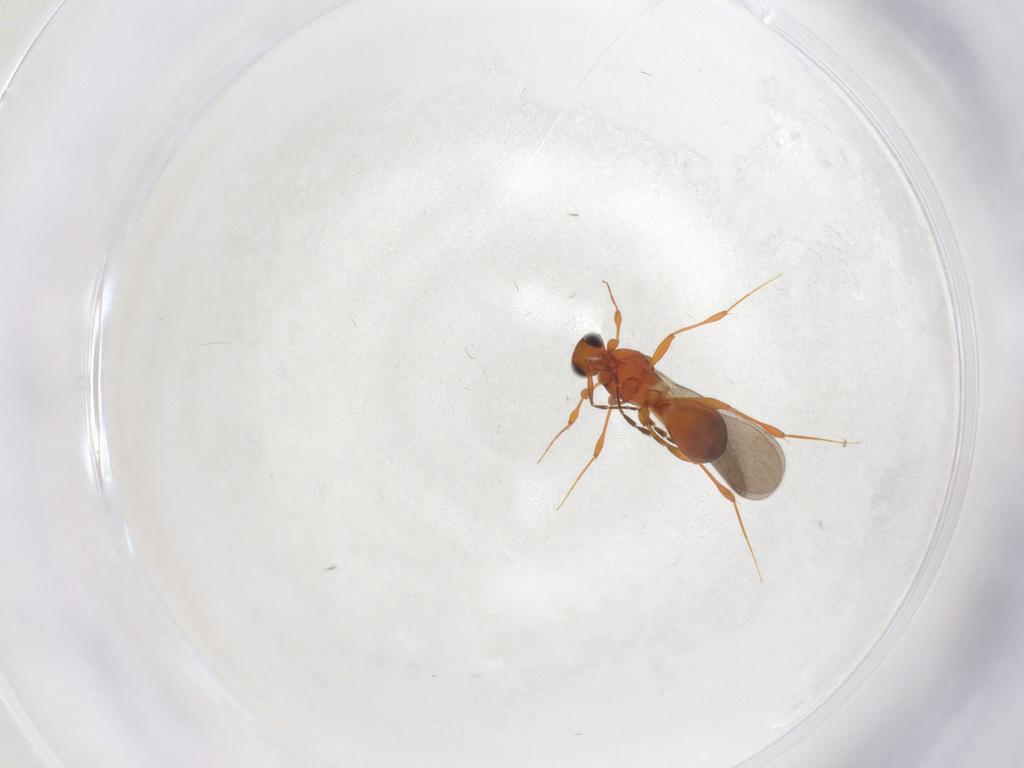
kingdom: Animalia
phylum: Arthropoda
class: Insecta
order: Hymenoptera
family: Platygastridae
